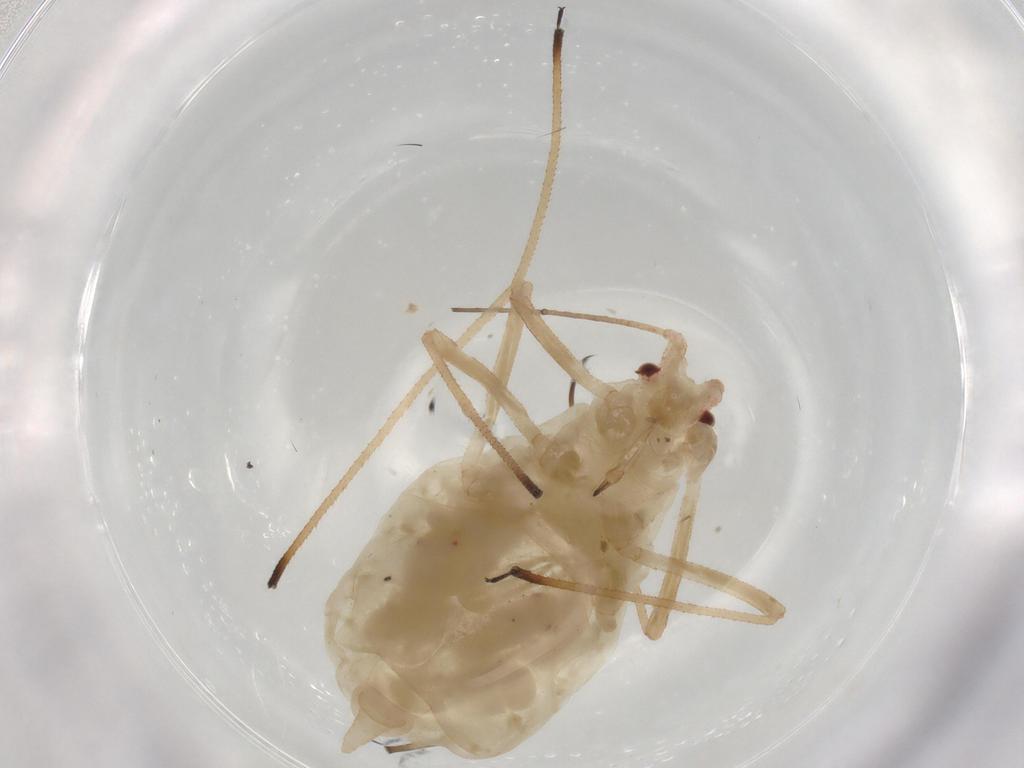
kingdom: Animalia
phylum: Arthropoda
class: Insecta
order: Hemiptera
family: Aphididae
